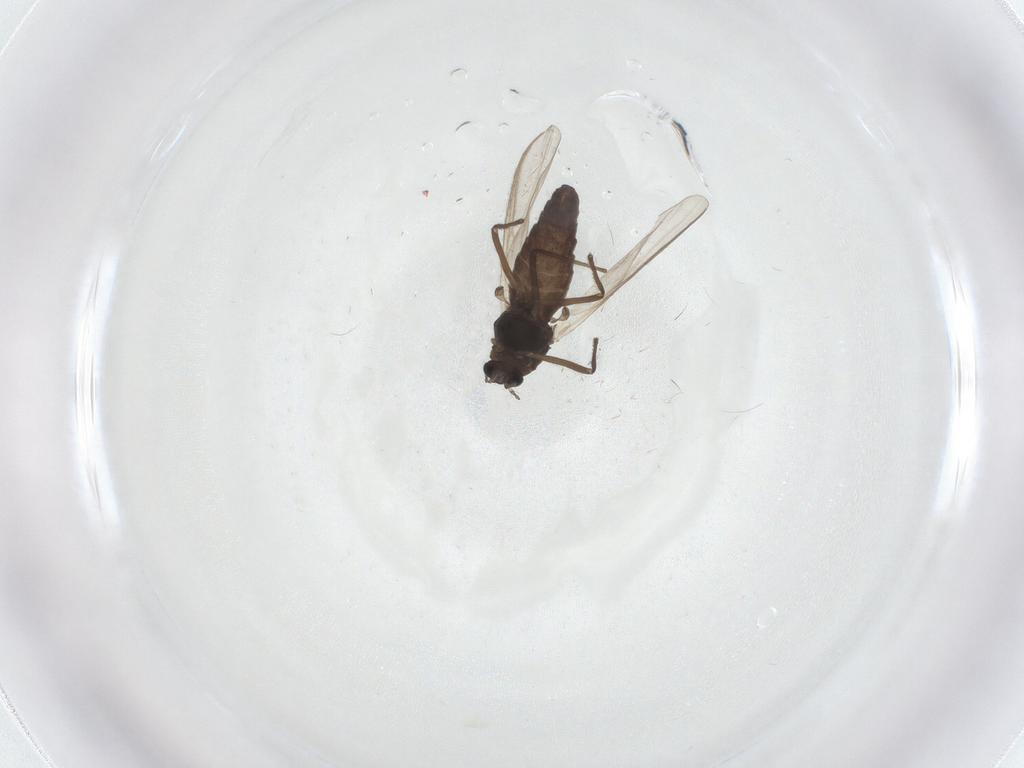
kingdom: Animalia
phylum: Arthropoda
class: Insecta
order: Diptera
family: Chironomidae
